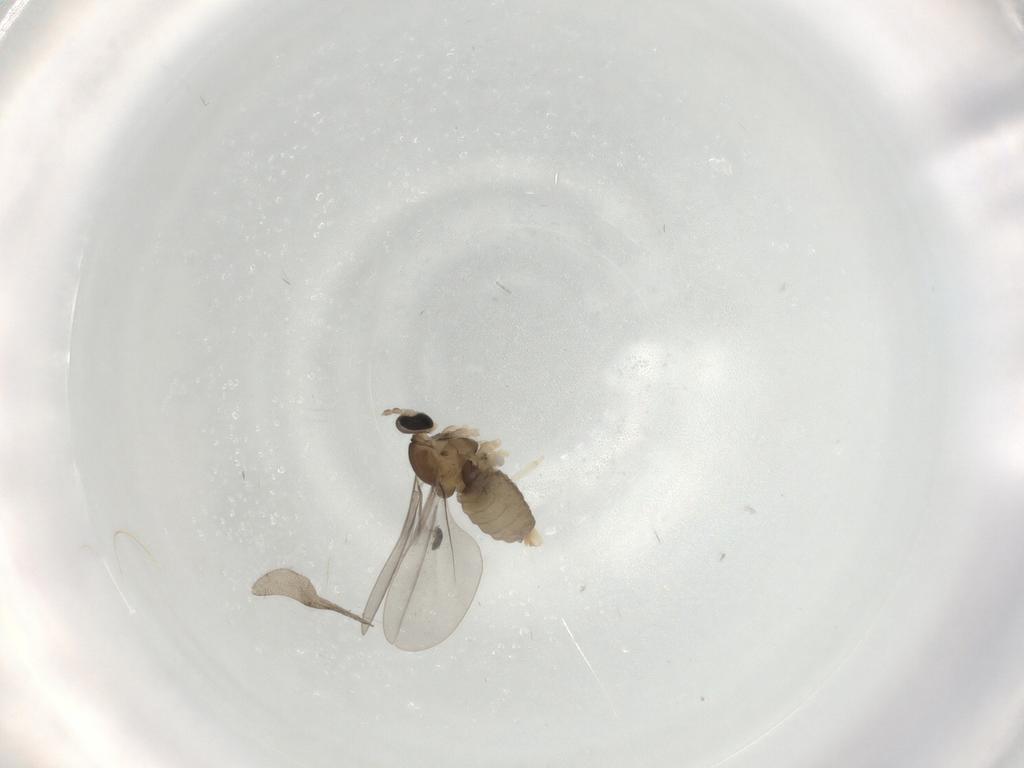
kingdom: Animalia
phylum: Arthropoda
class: Insecta
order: Diptera
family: Cecidomyiidae
